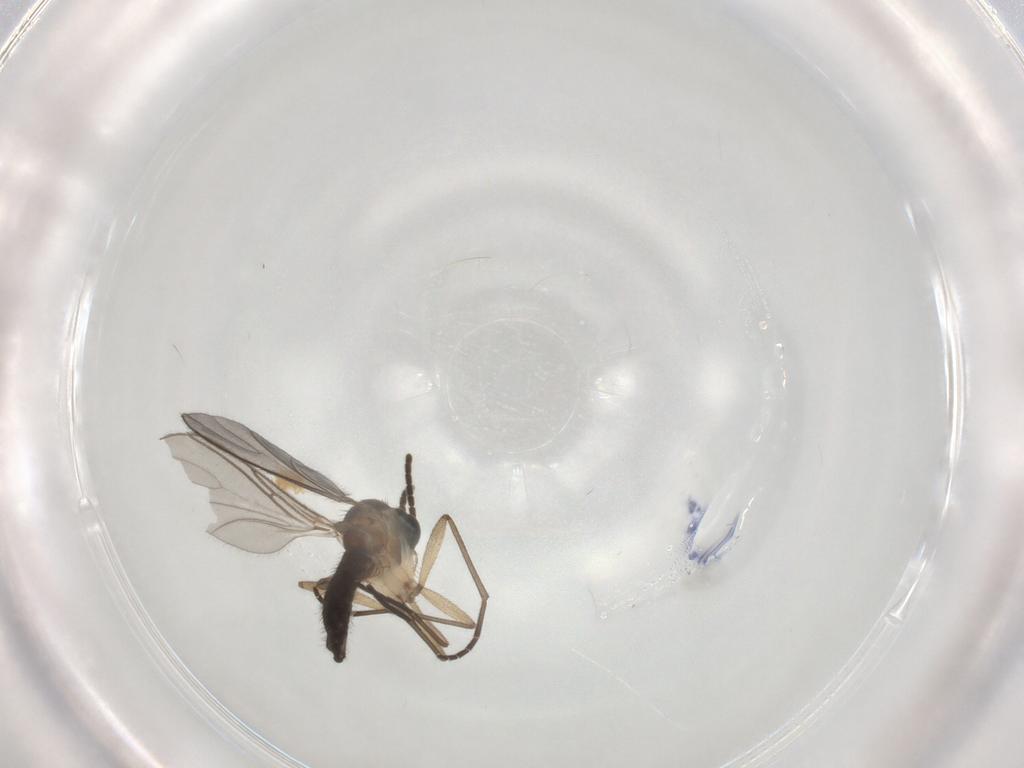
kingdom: Animalia
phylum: Arthropoda
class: Insecta
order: Diptera
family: Sciaridae
